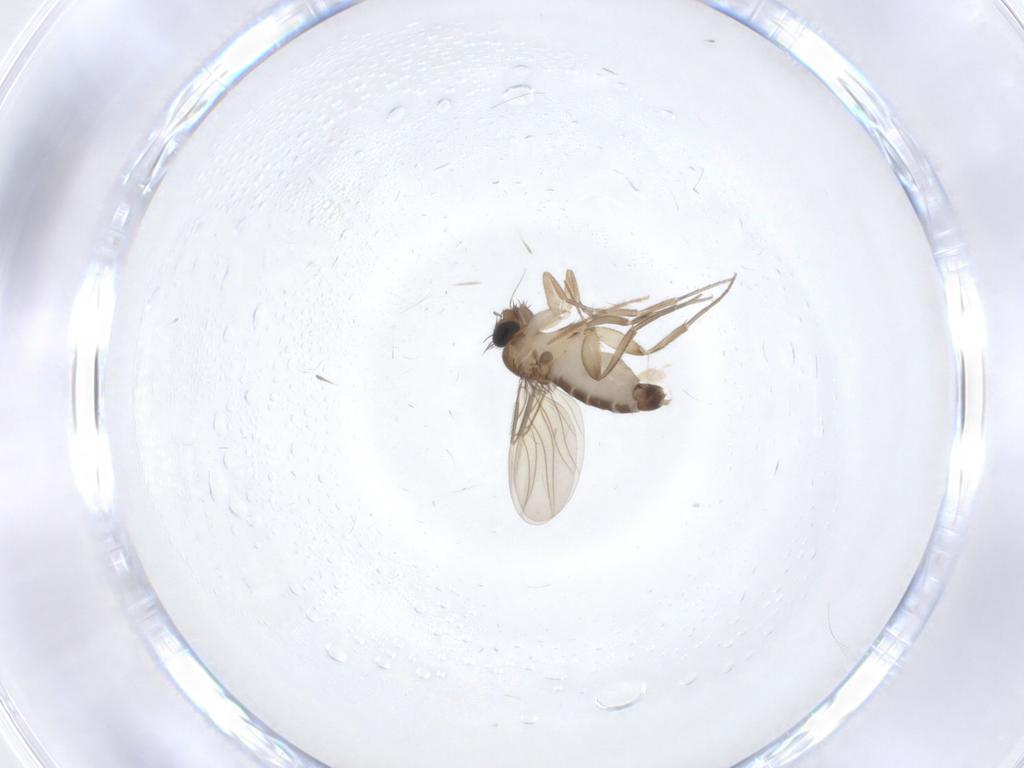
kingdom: Animalia
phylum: Arthropoda
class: Insecta
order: Diptera
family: Phoridae
